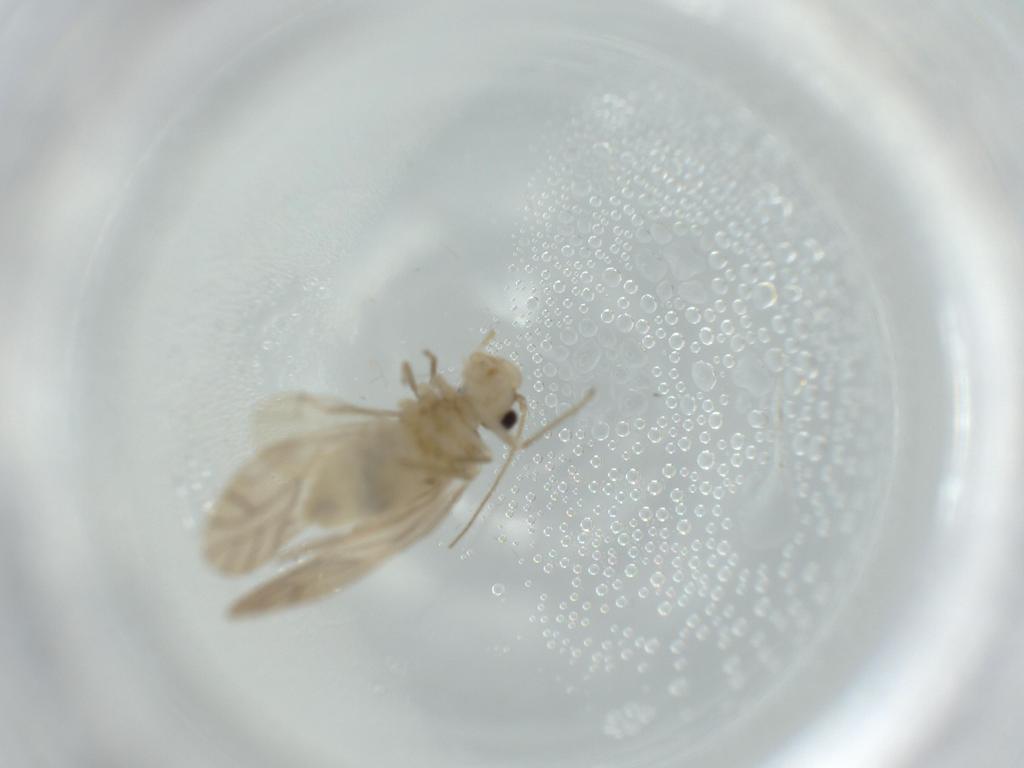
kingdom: Animalia
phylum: Arthropoda
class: Insecta
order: Psocodea
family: Caeciliusidae
